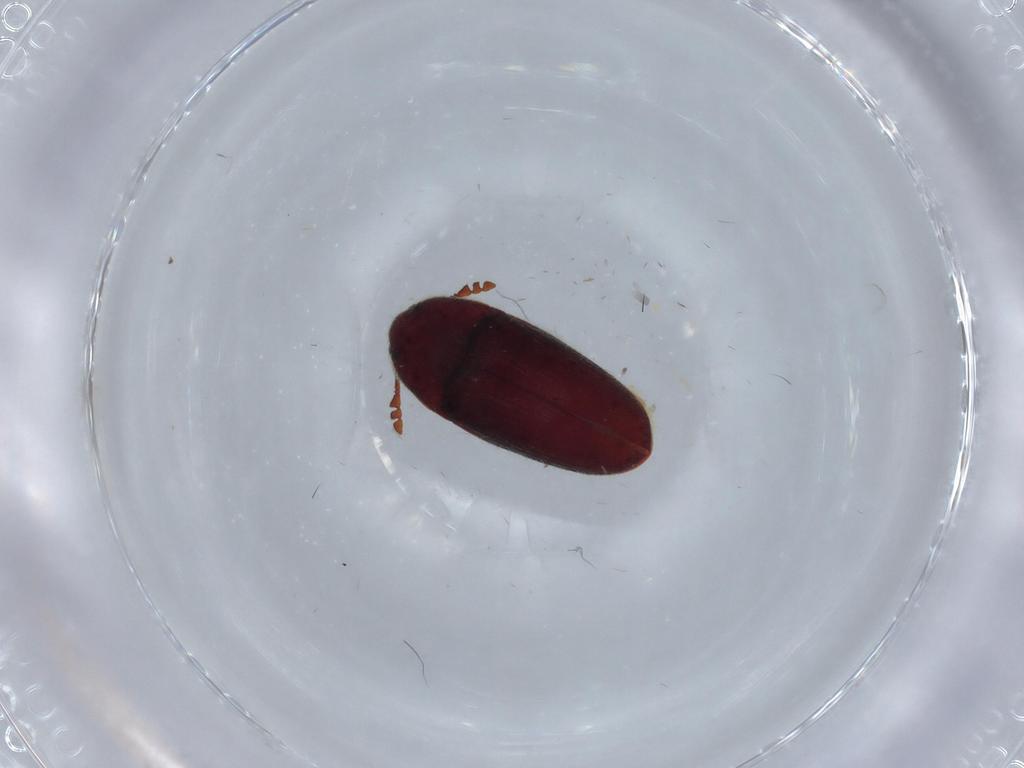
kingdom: Animalia
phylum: Arthropoda
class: Insecta
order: Coleoptera
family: Throscidae
